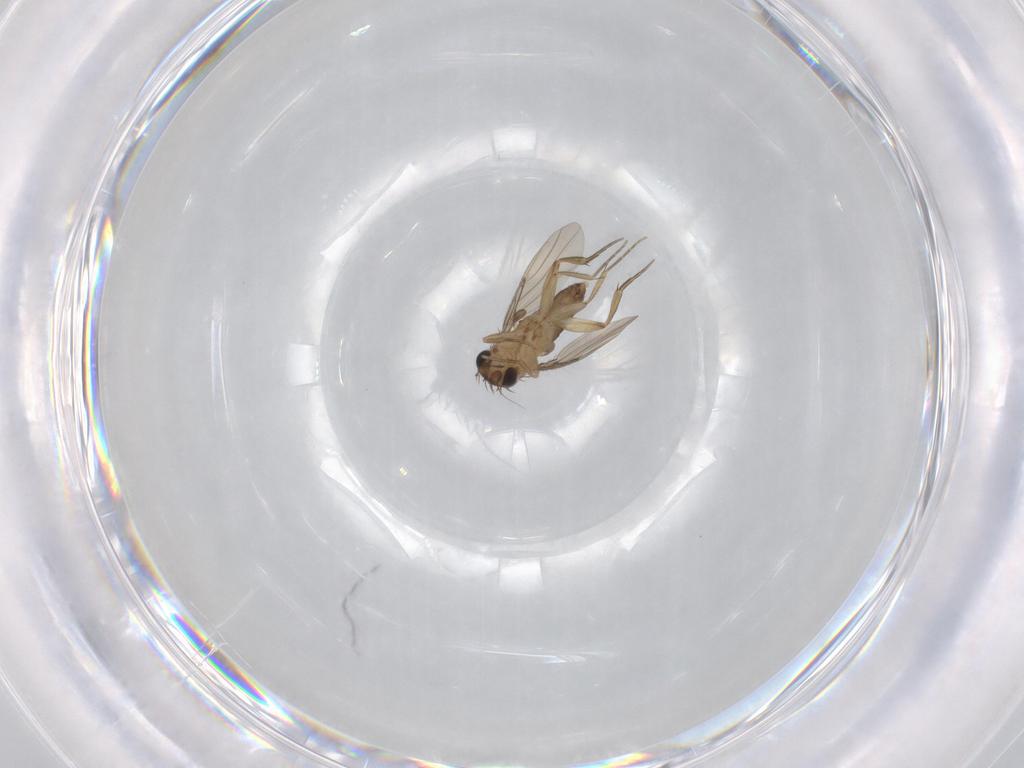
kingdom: Animalia
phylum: Arthropoda
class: Insecta
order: Diptera
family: Phoridae
